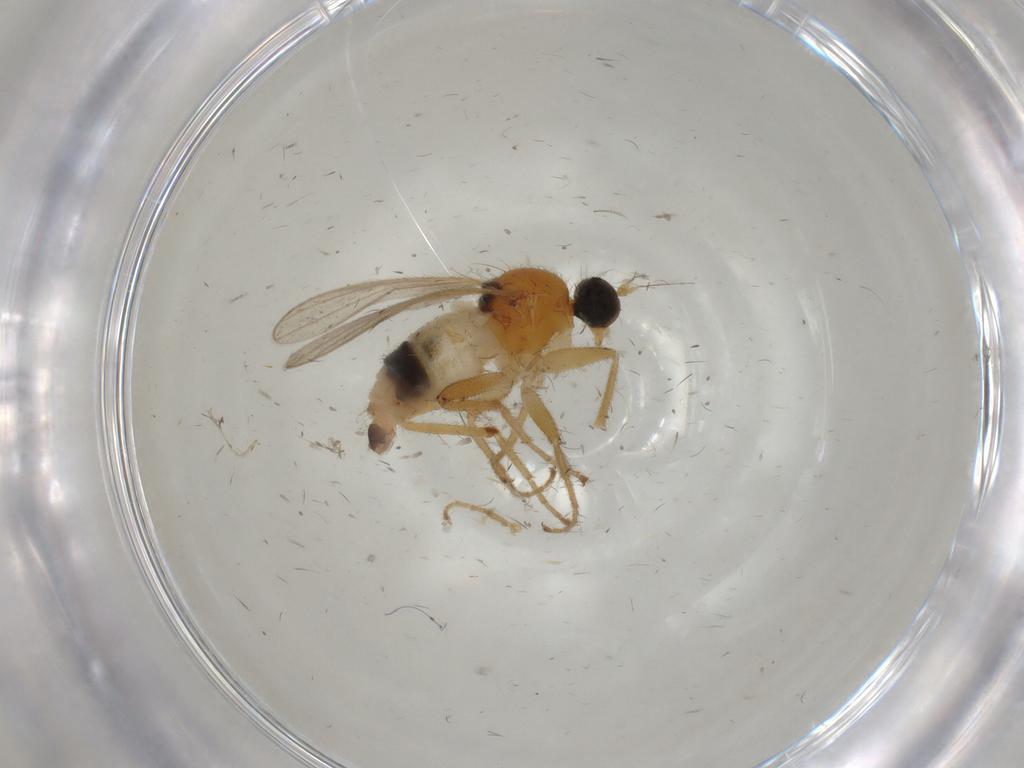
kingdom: Animalia
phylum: Arthropoda
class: Insecta
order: Diptera
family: Hybotidae
